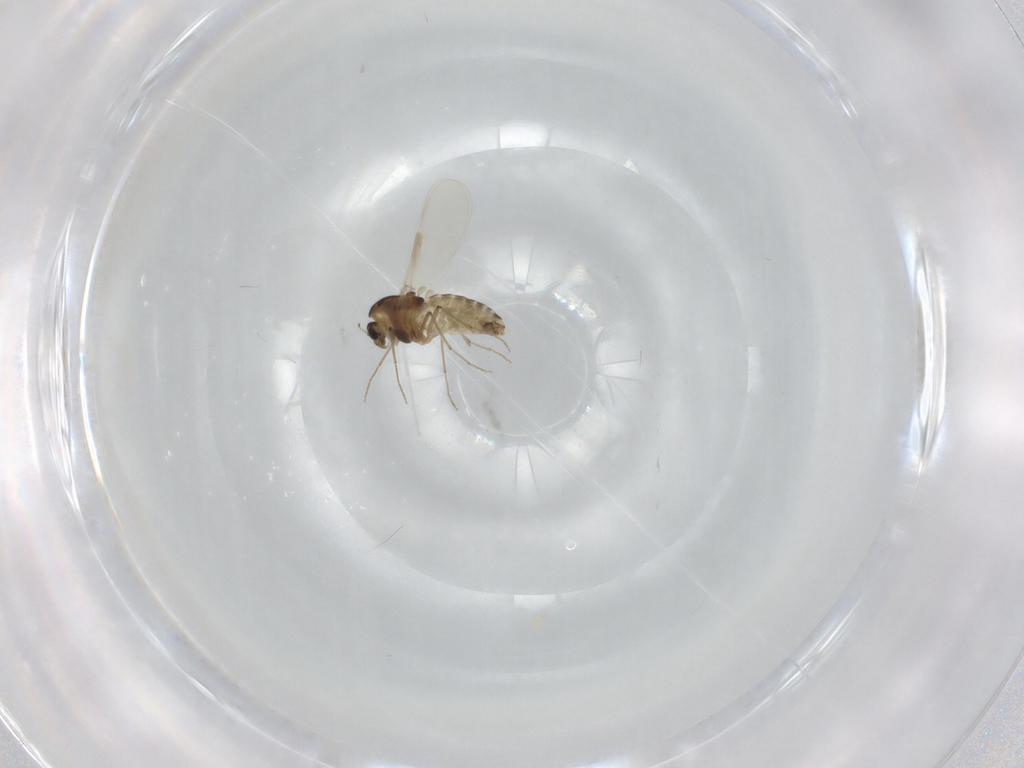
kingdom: Animalia
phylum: Arthropoda
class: Insecta
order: Diptera
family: Chironomidae
